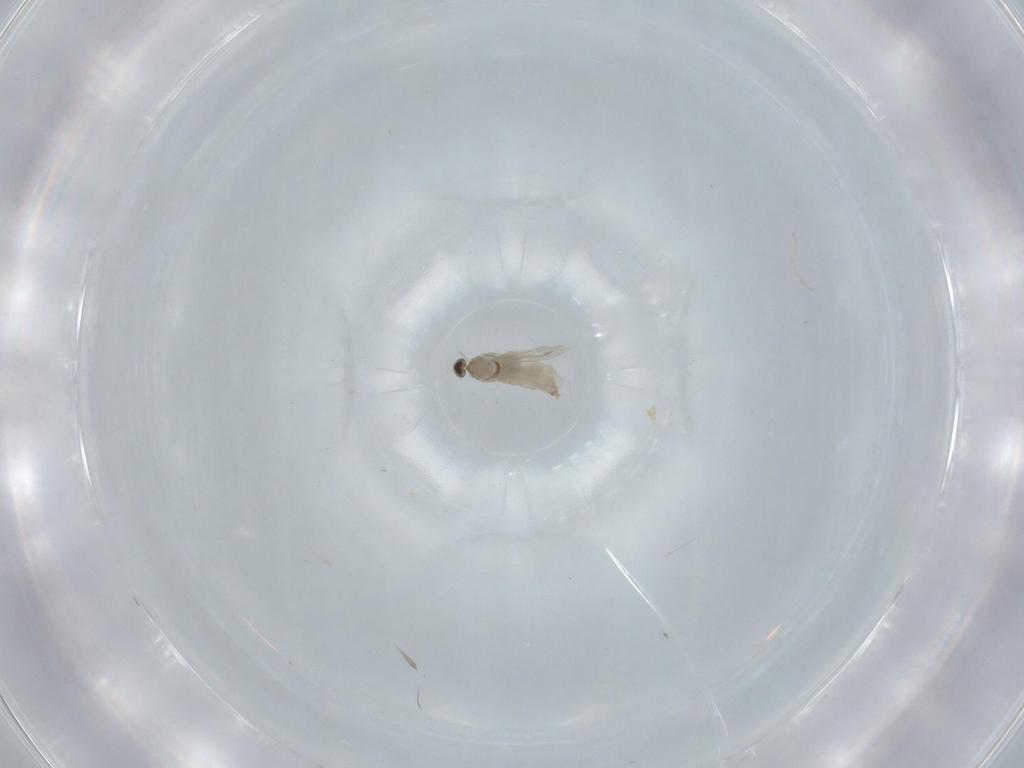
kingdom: Animalia
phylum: Arthropoda
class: Insecta
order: Diptera
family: Cecidomyiidae
